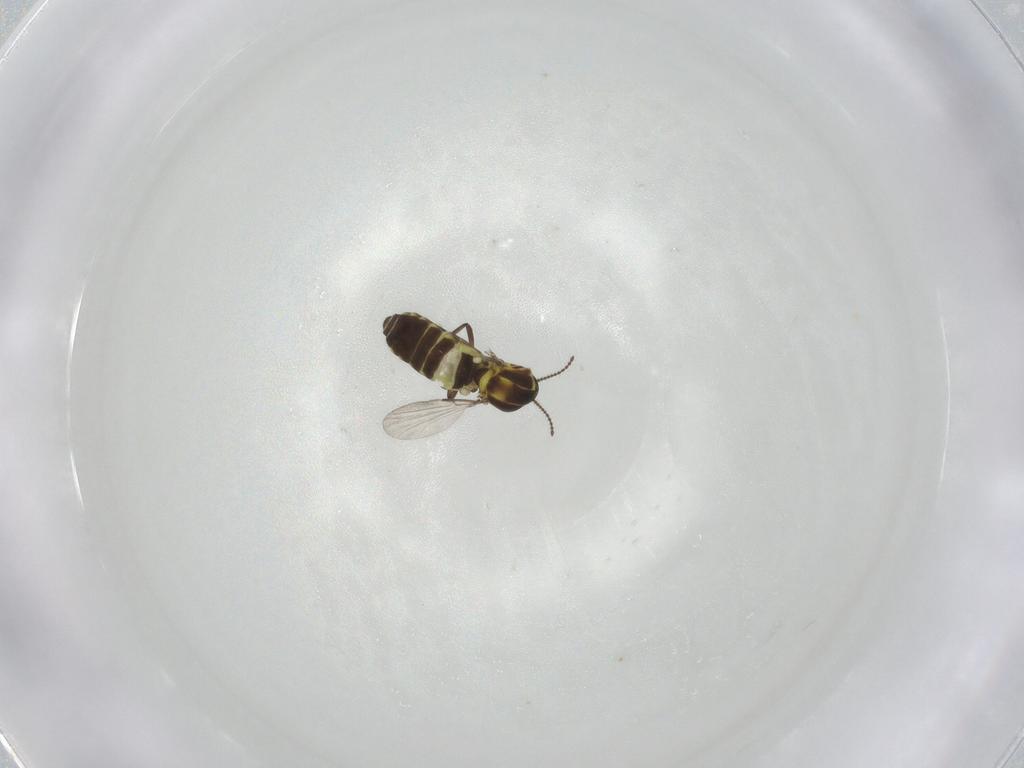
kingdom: Animalia
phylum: Arthropoda
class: Insecta
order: Diptera
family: Ceratopogonidae
